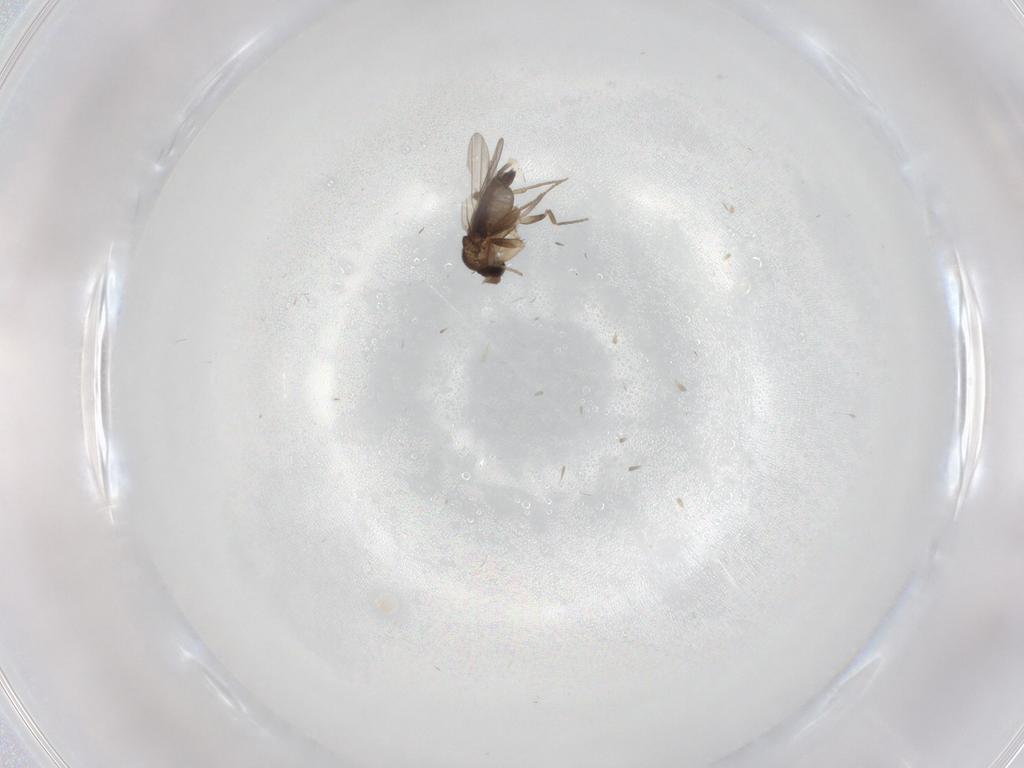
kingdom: Animalia
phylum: Arthropoda
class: Insecta
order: Diptera
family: Phoridae
